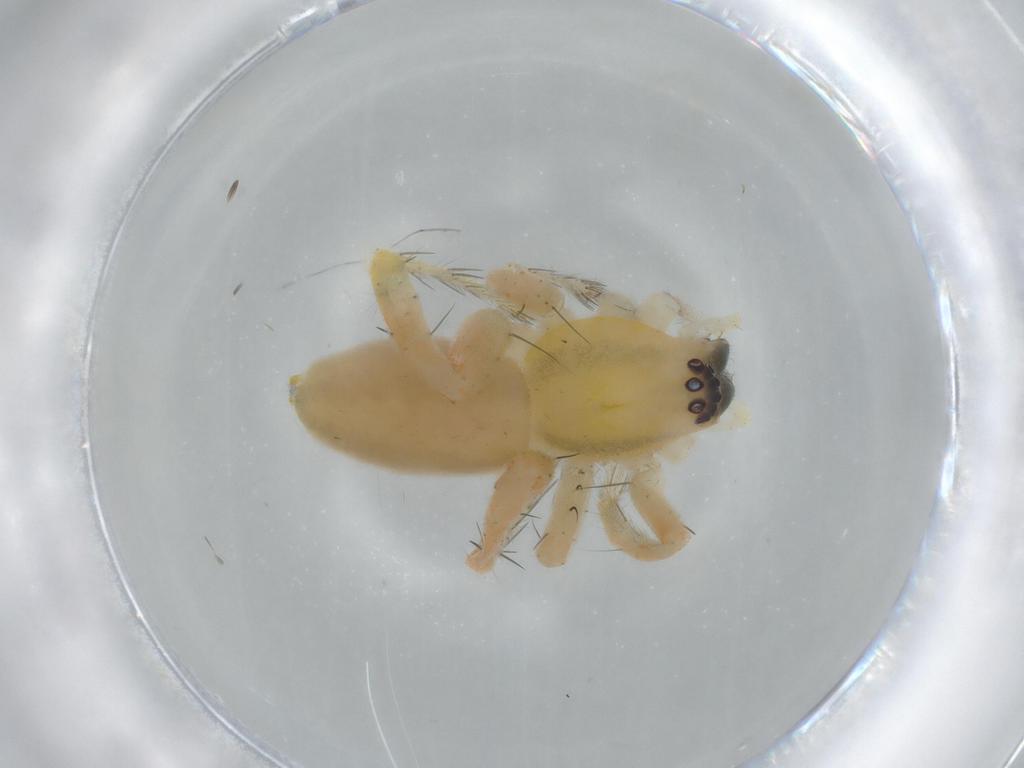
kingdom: Animalia
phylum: Arthropoda
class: Arachnida
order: Araneae
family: Anyphaenidae
